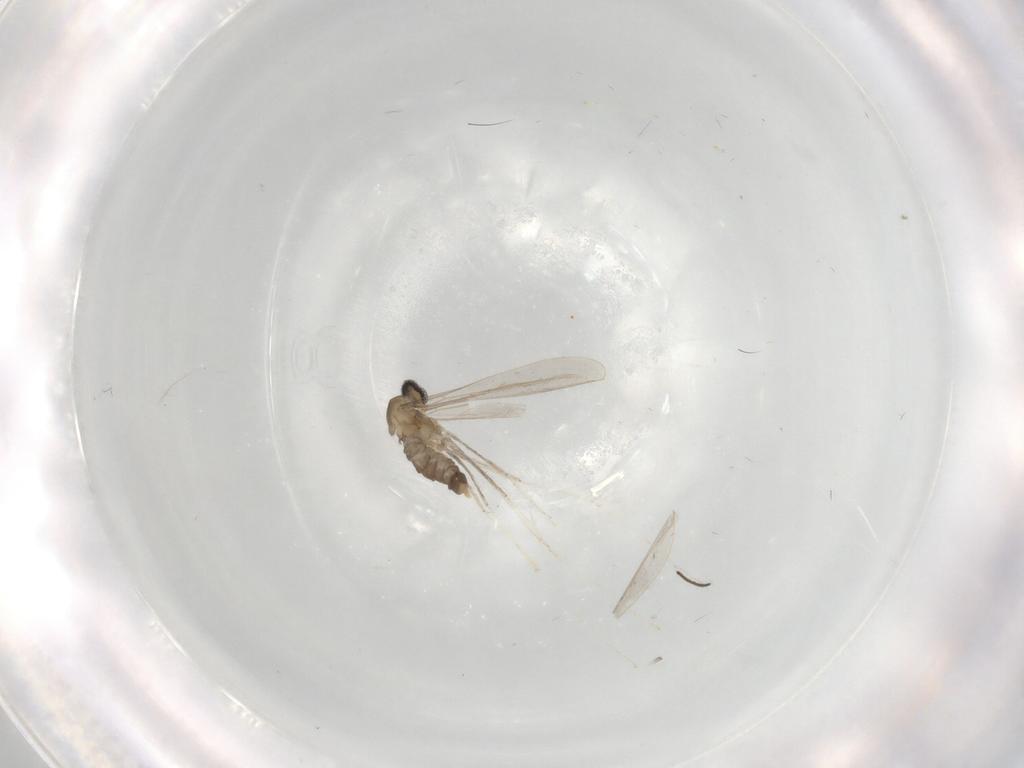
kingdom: Animalia
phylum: Arthropoda
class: Insecta
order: Diptera
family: Cecidomyiidae
